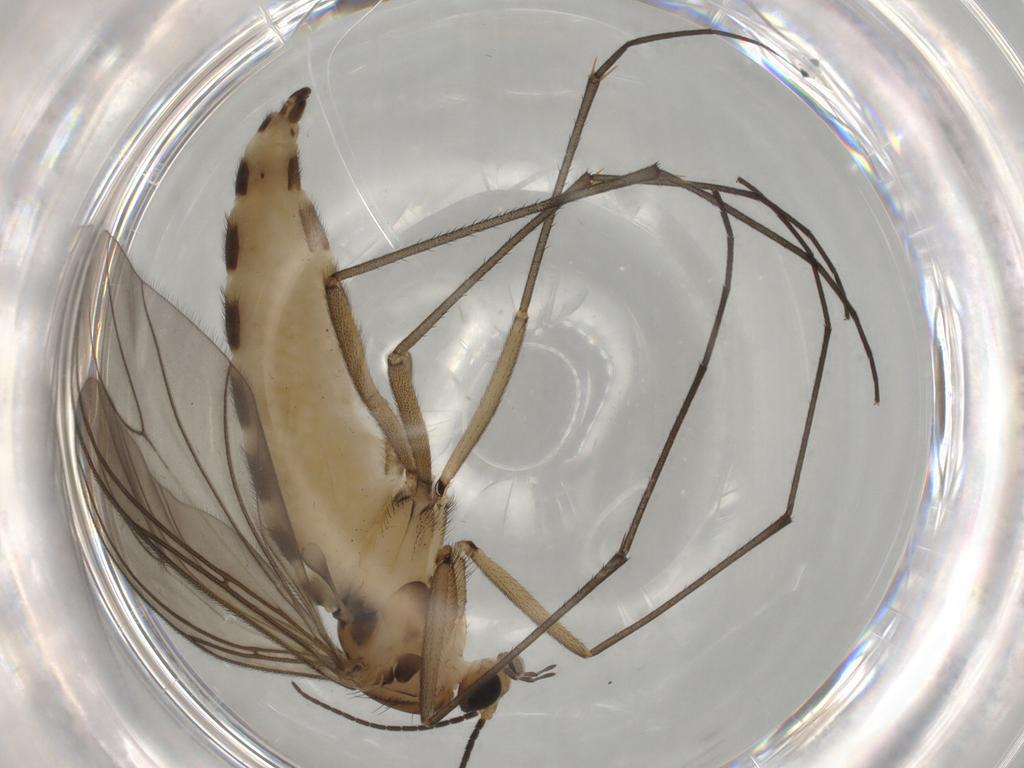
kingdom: Animalia
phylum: Arthropoda
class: Insecta
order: Diptera
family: Sciaridae
